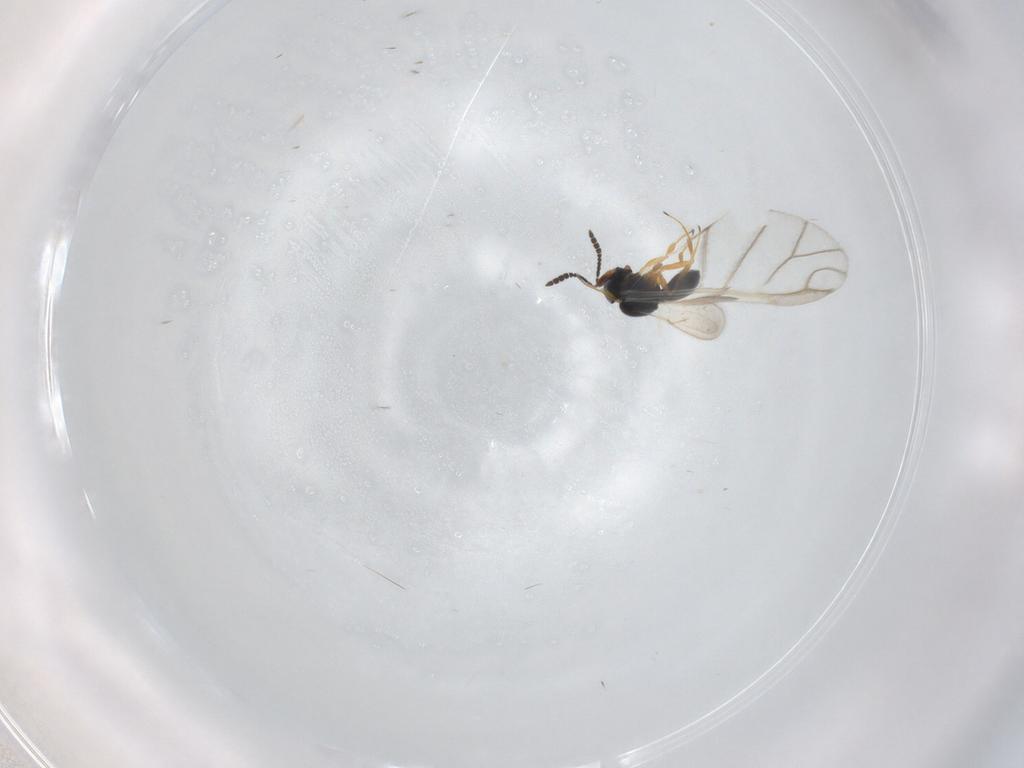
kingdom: Animalia
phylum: Arthropoda
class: Insecta
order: Hymenoptera
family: Scelionidae
